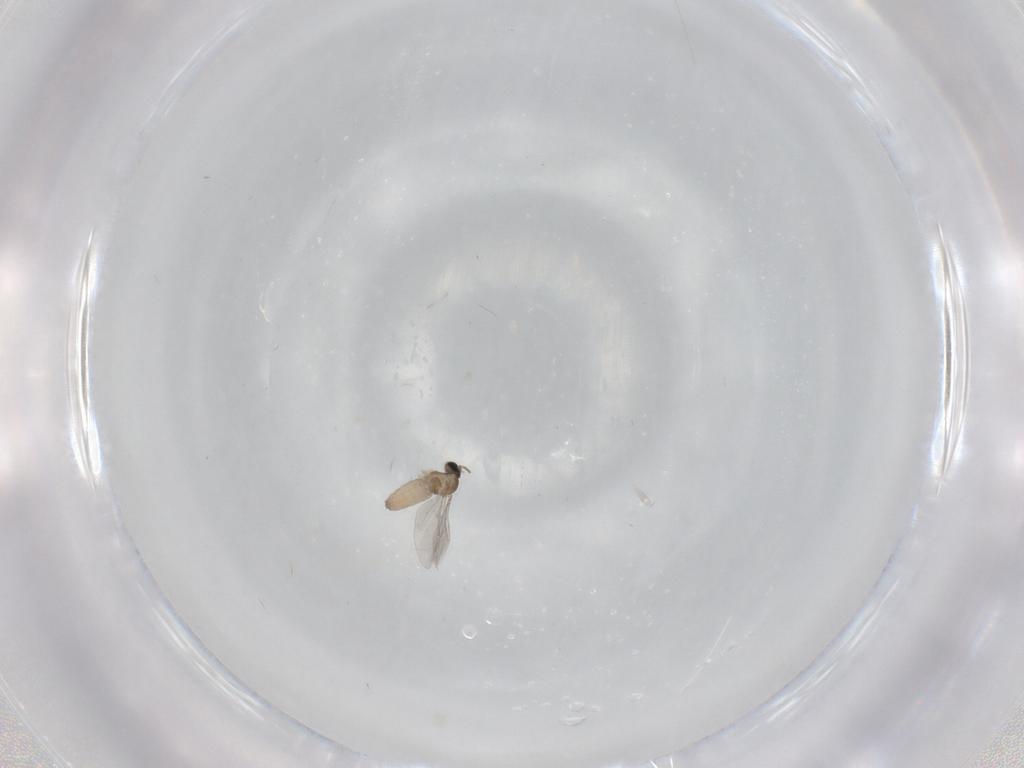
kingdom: Animalia
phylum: Arthropoda
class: Insecta
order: Diptera
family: Cecidomyiidae
